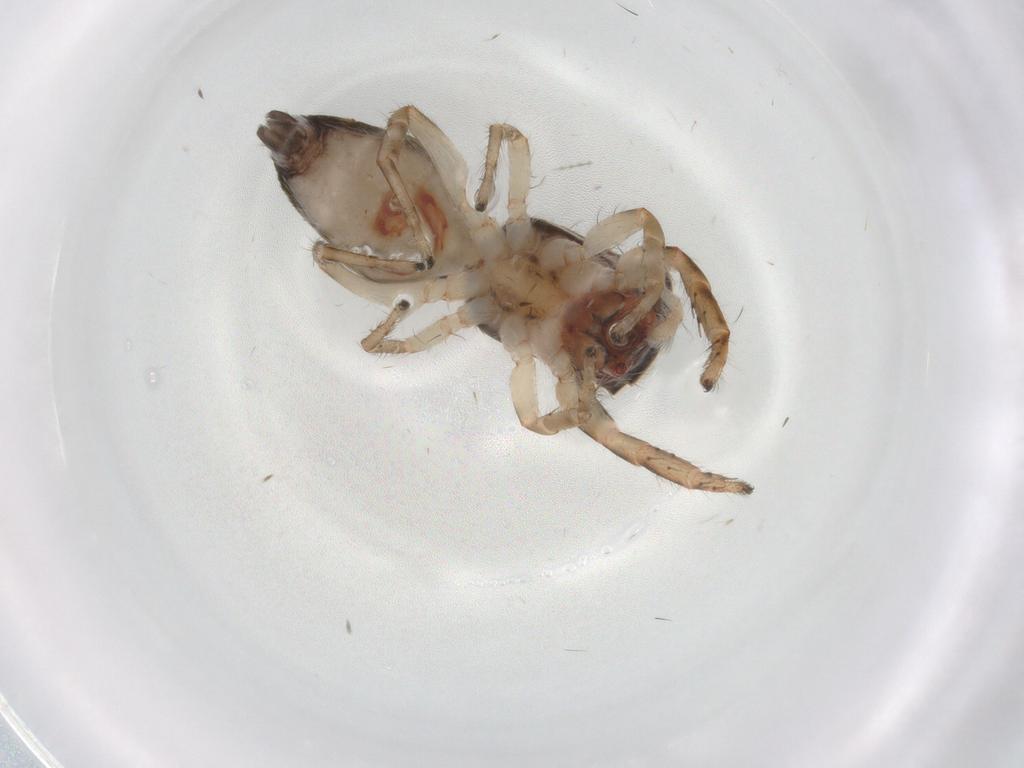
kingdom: Animalia
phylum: Arthropoda
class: Arachnida
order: Araneae
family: Salticidae
